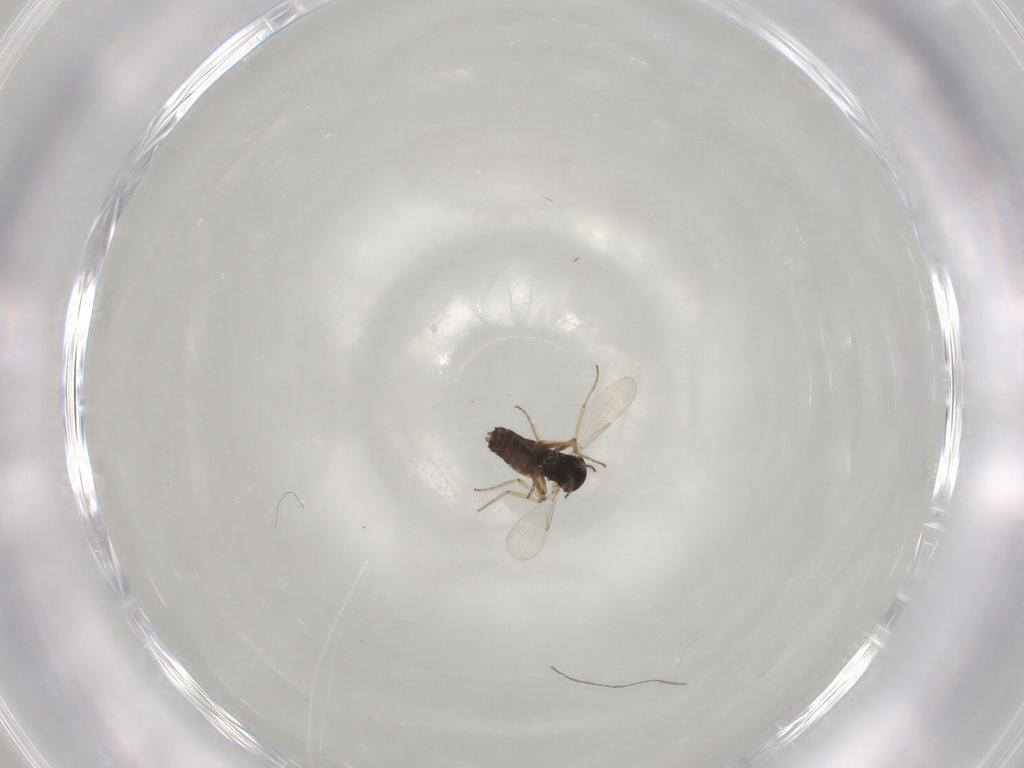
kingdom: Animalia
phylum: Arthropoda
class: Insecta
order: Diptera
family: Ceratopogonidae
